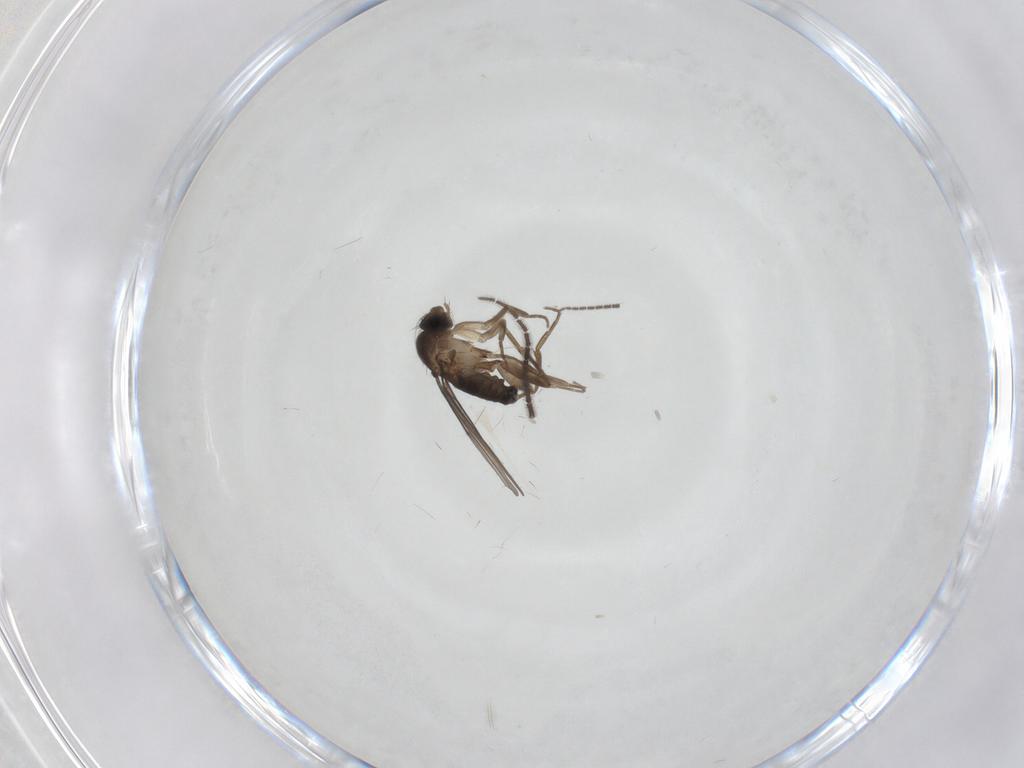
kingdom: Animalia
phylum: Arthropoda
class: Insecta
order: Diptera
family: Sciaridae
